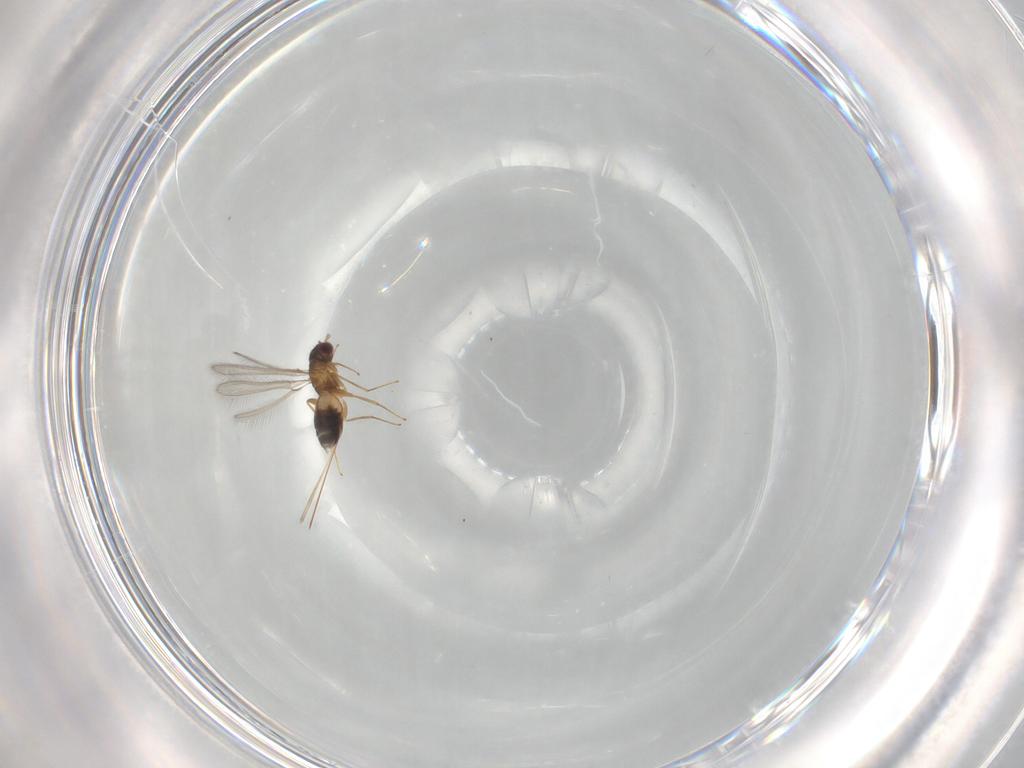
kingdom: Animalia
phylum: Arthropoda
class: Insecta
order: Hymenoptera
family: Mymaridae
